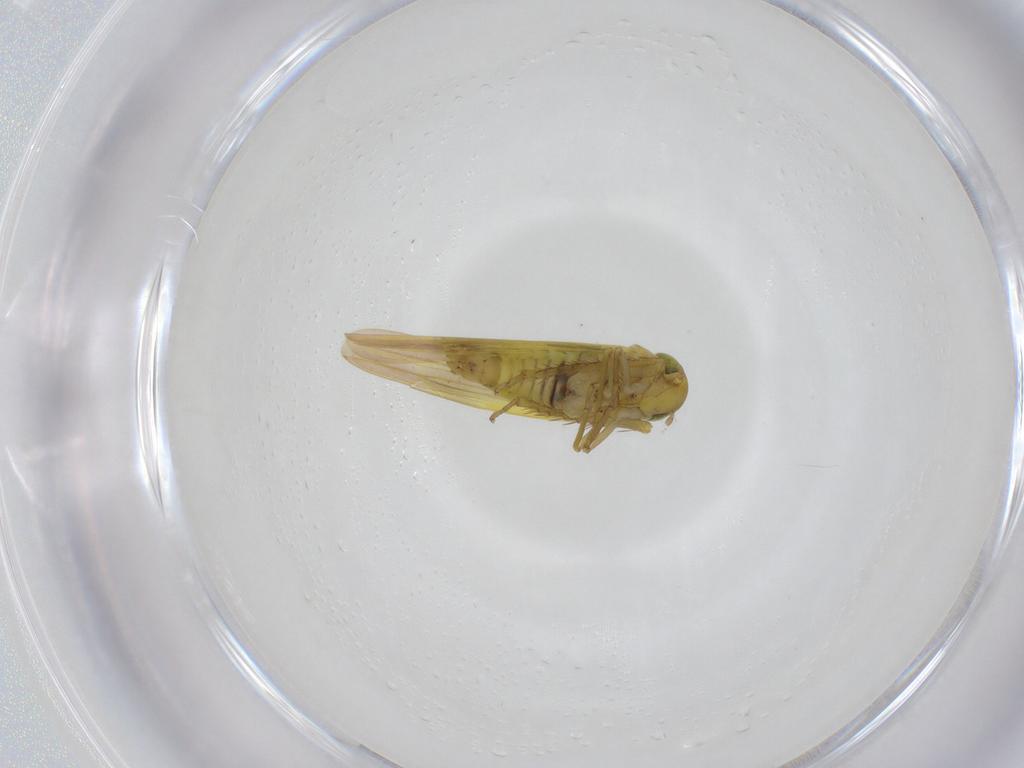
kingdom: Animalia
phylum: Arthropoda
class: Insecta
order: Hemiptera
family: Cicadellidae
